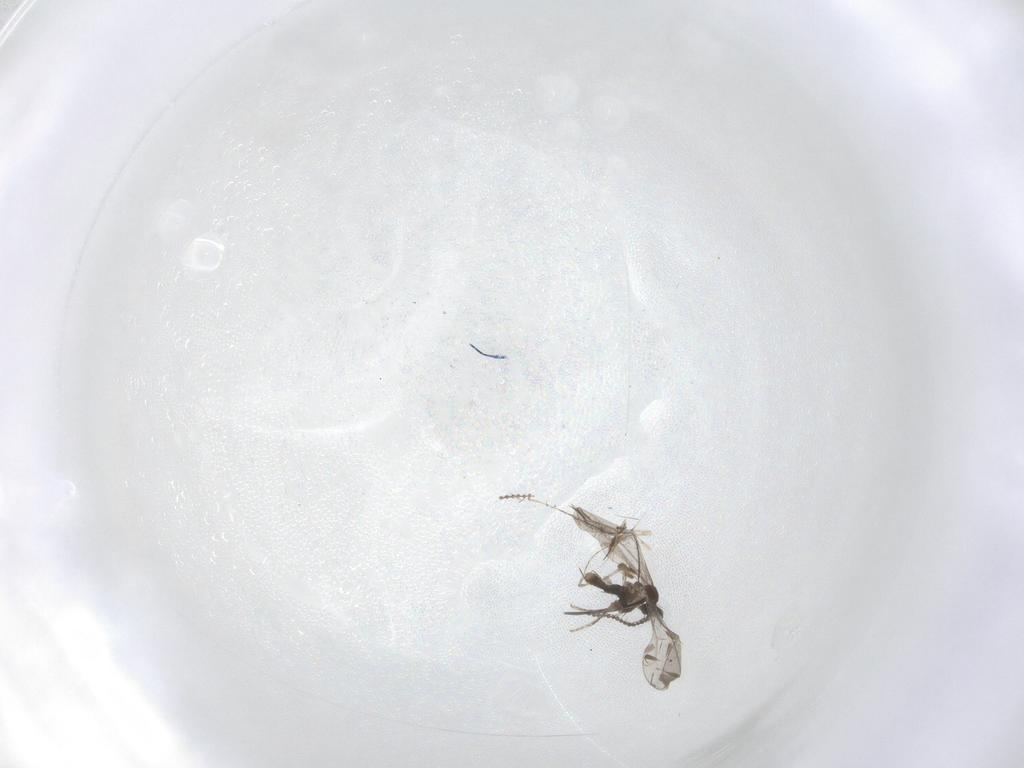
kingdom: Animalia
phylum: Arthropoda
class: Insecta
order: Diptera
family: Cecidomyiidae
